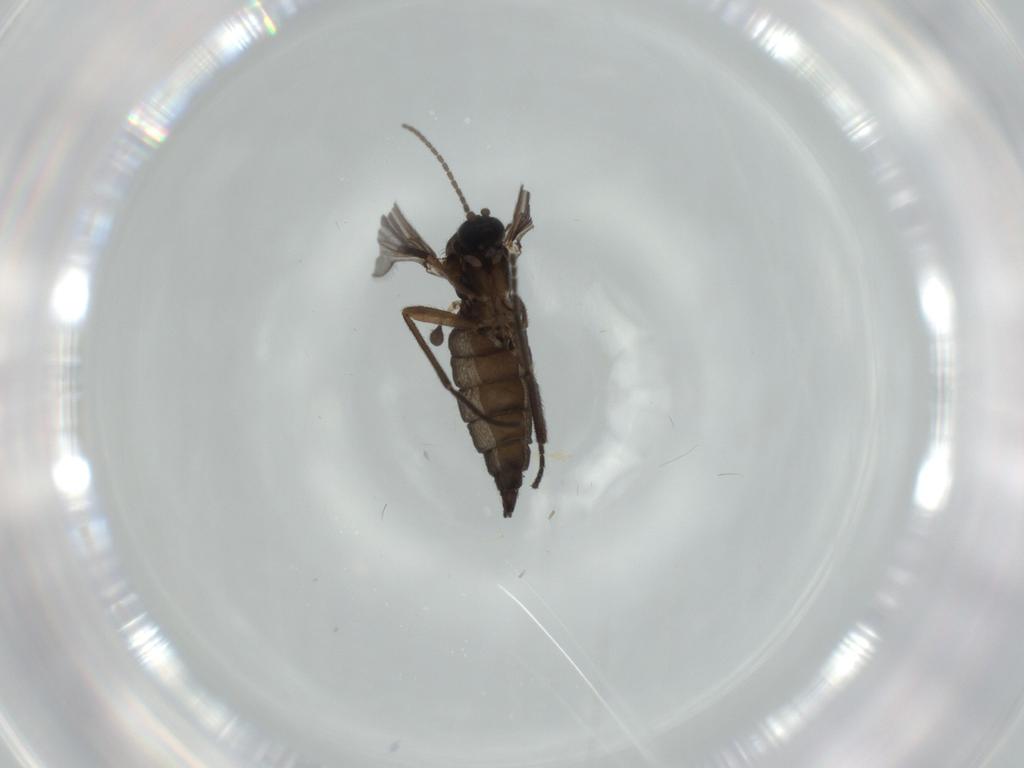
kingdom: Animalia
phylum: Arthropoda
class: Insecta
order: Diptera
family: Sciaridae
